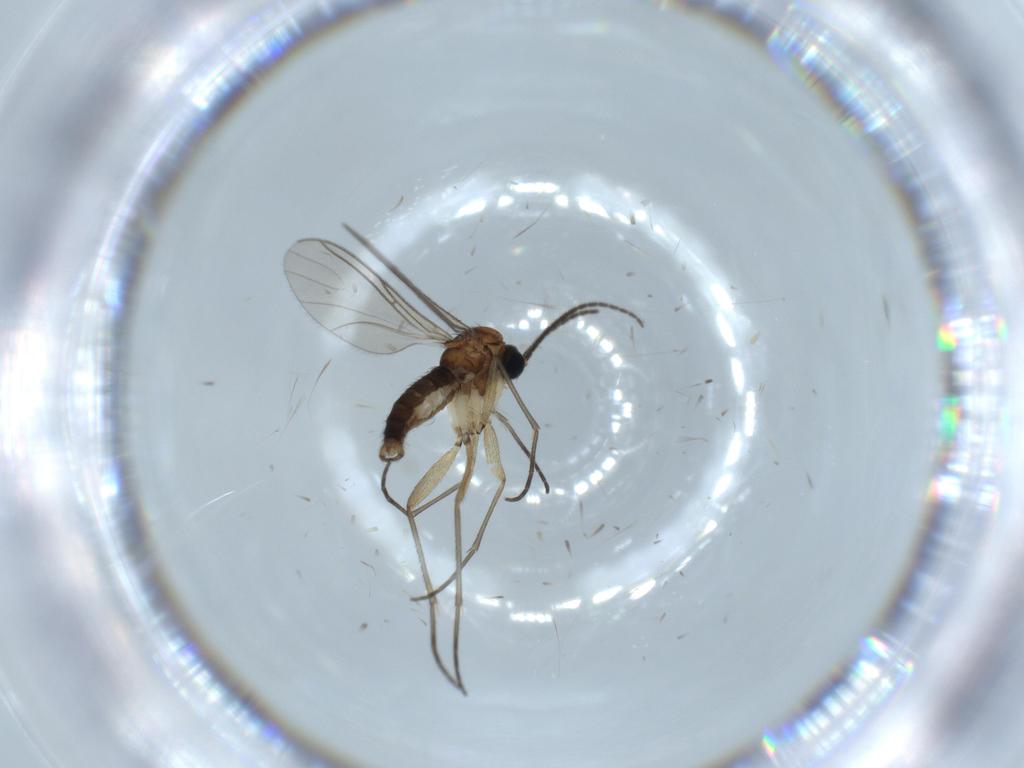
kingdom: Animalia
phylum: Arthropoda
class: Insecta
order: Diptera
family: Sciaridae
